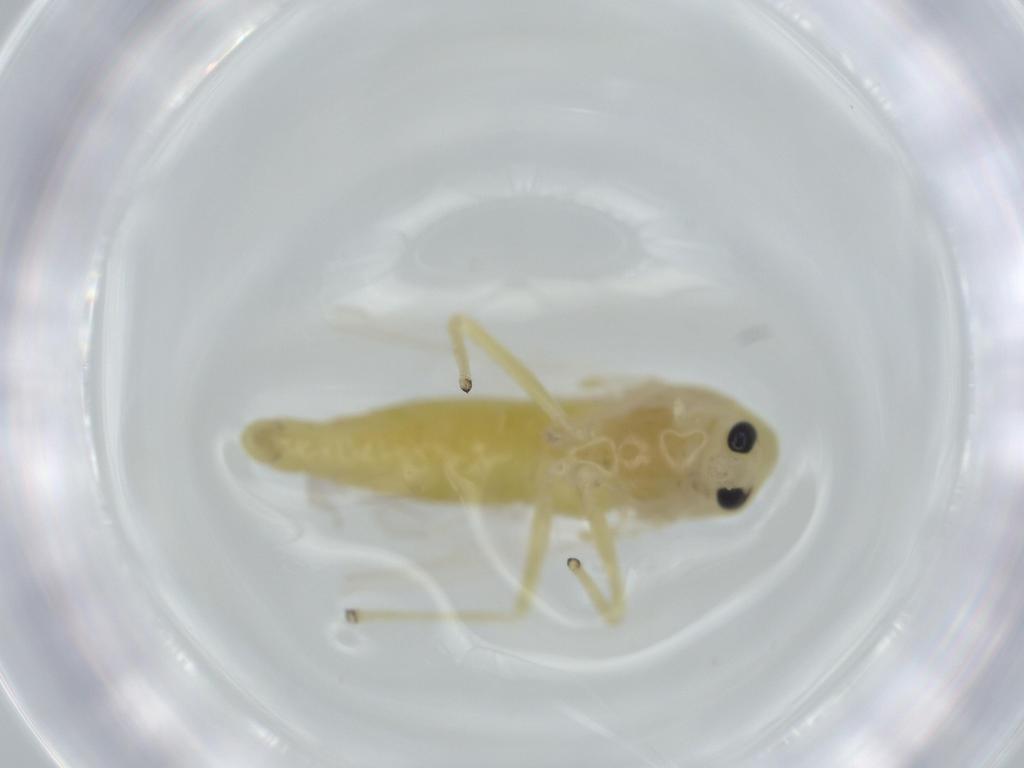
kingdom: Animalia
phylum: Arthropoda
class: Insecta
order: Diptera
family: Chironomidae
